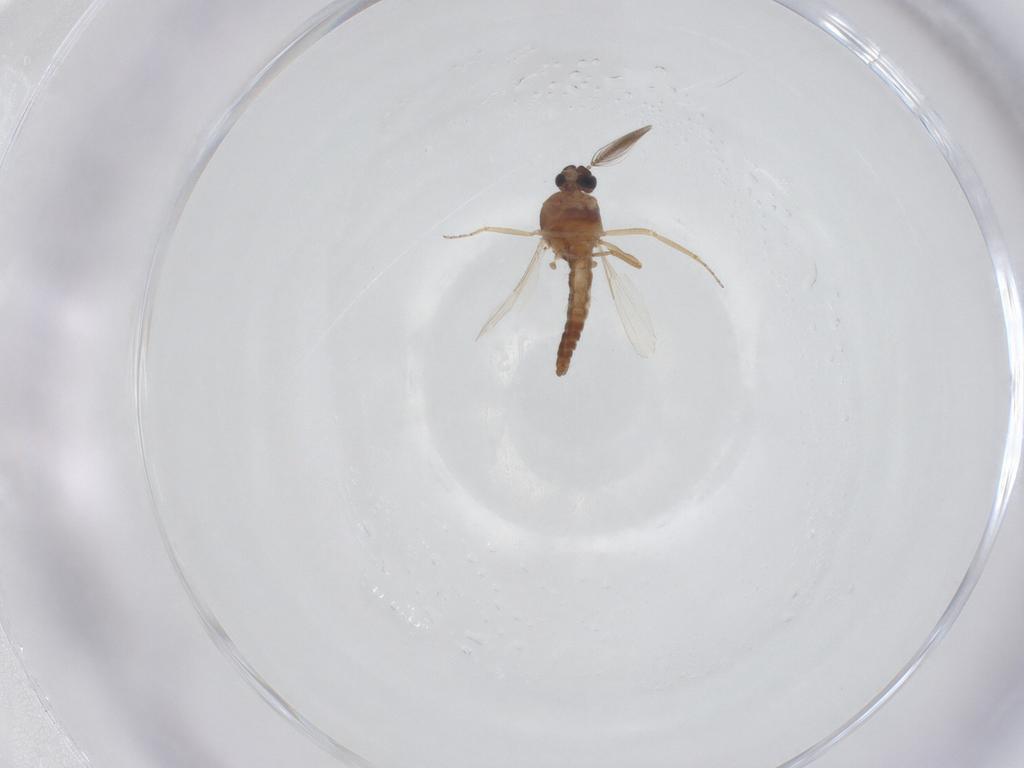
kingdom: Animalia
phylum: Arthropoda
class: Insecta
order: Diptera
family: Ceratopogonidae
